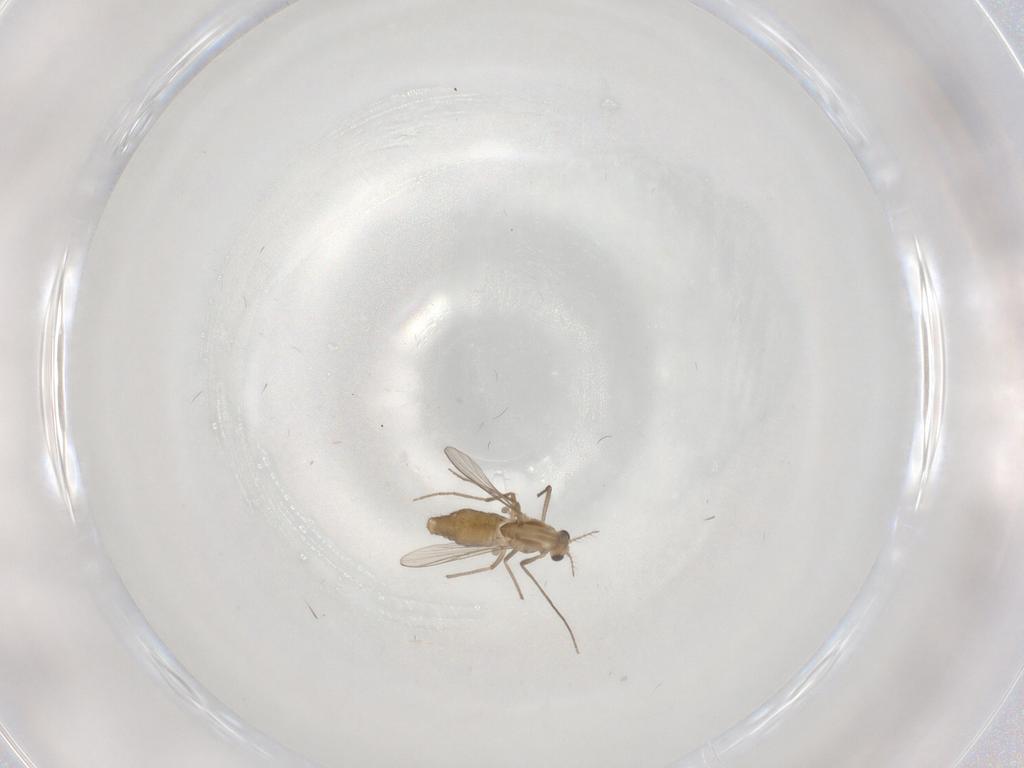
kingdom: Animalia
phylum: Arthropoda
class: Insecta
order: Diptera
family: Chironomidae
